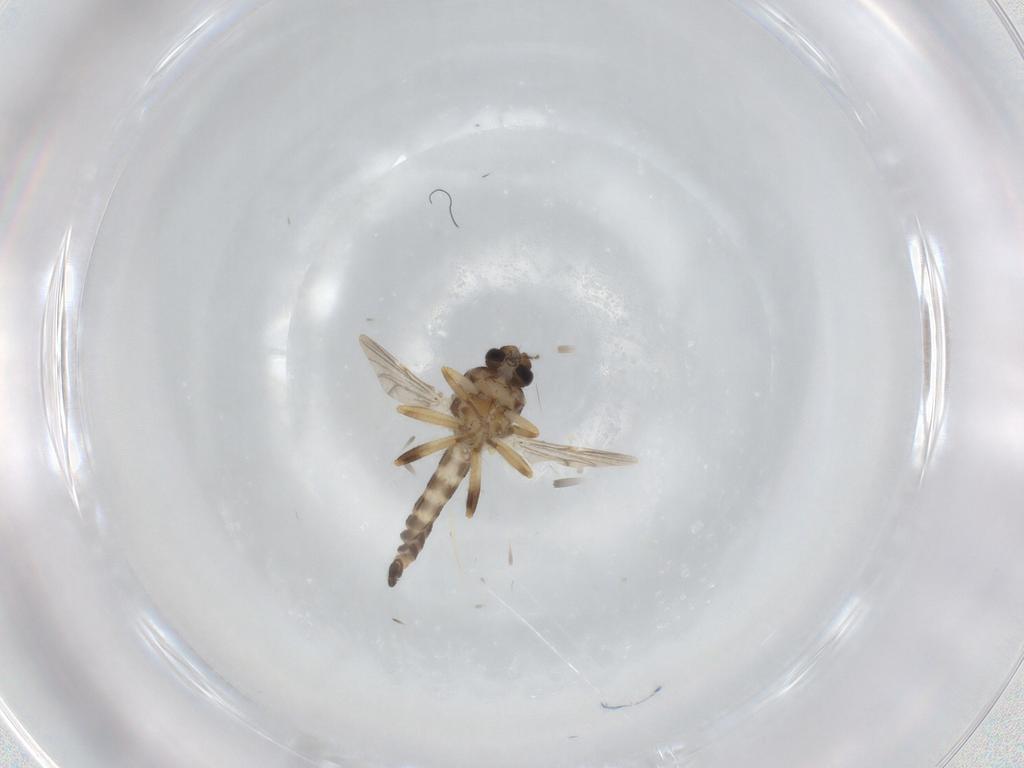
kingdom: Animalia
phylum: Arthropoda
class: Insecta
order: Diptera
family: Ceratopogonidae
